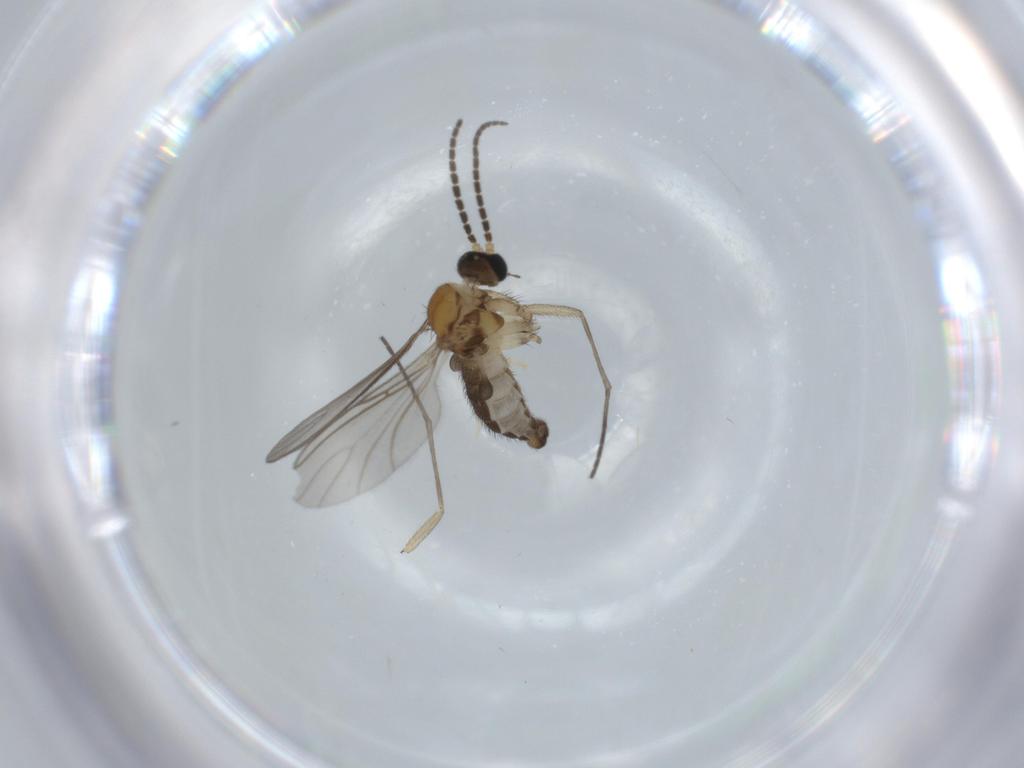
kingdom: Animalia
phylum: Arthropoda
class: Insecta
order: Diptera
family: Sciaridae
